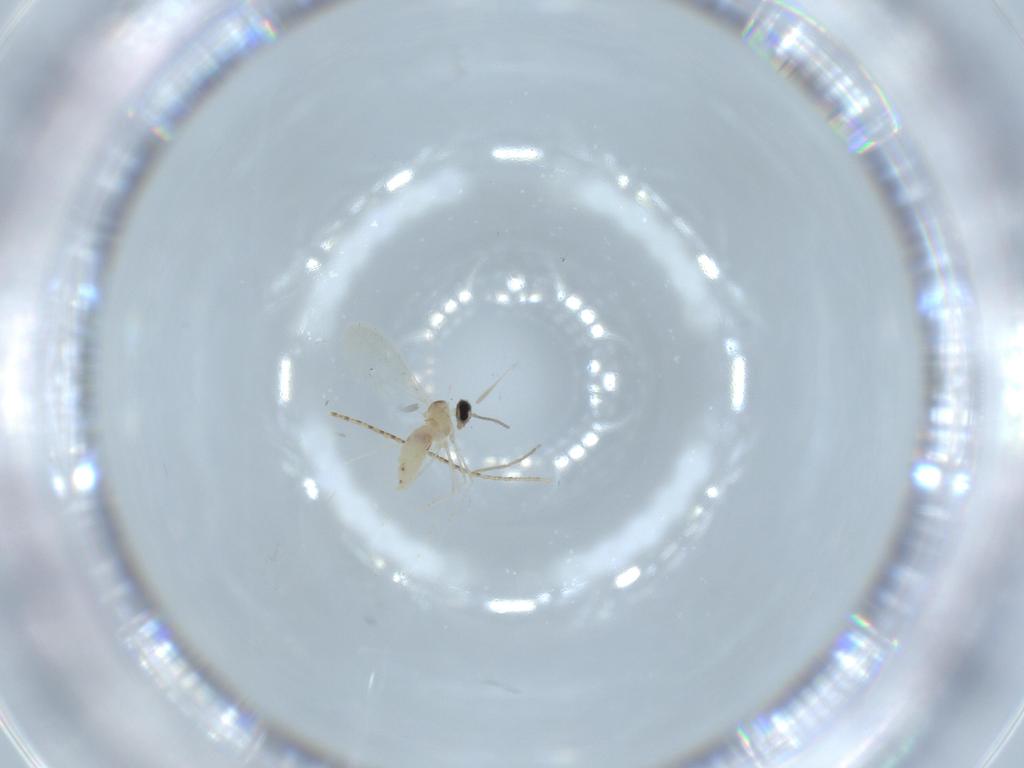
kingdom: Animalia
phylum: Arthropoda
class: Insecta
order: Diptera
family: Cecidomyiidae
